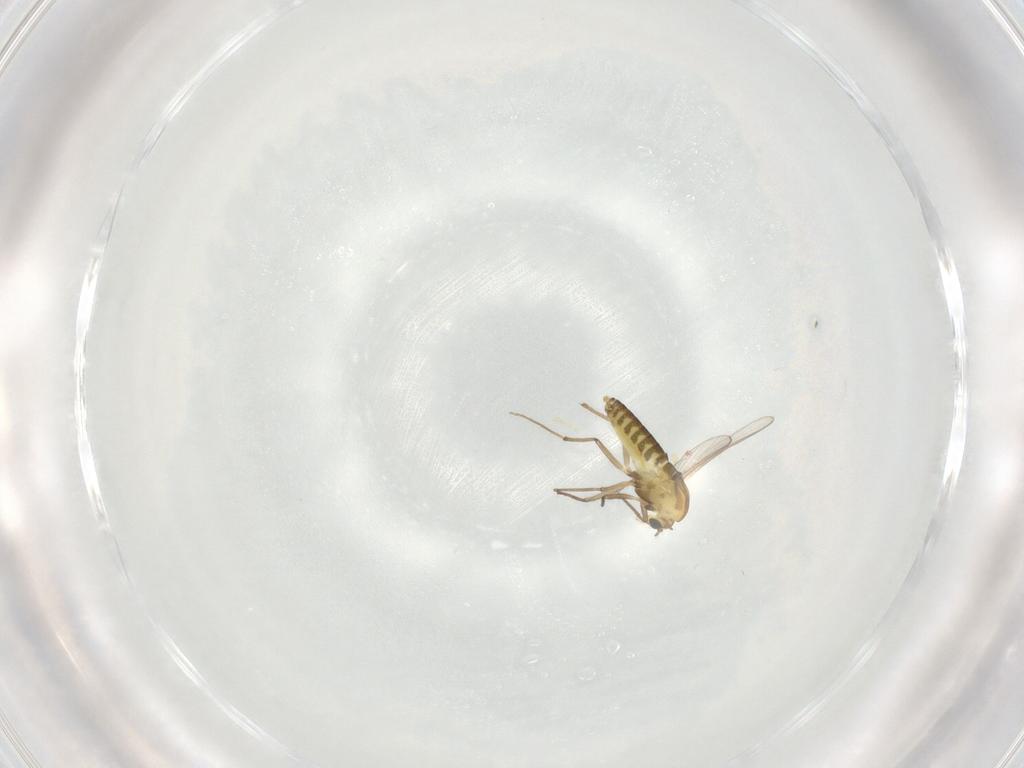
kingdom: Animalia
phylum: Arthropoda
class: Insecta
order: Diptera
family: Chironomidae
